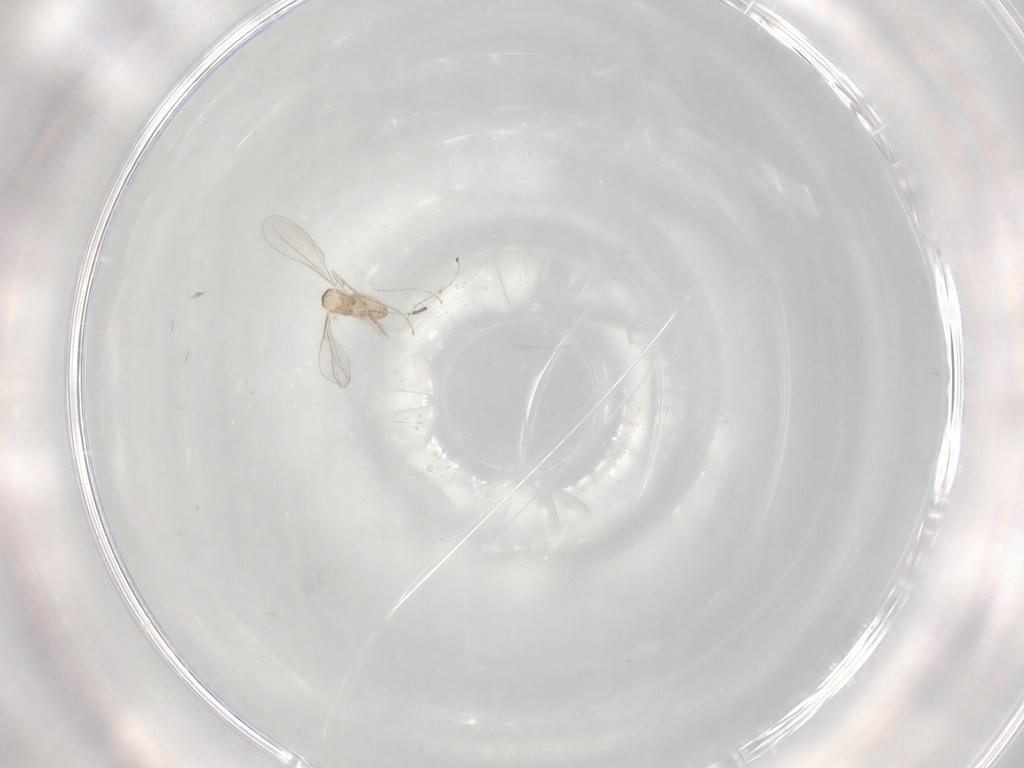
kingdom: Animalia
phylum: Arthropoda
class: Insecta
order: Diptera
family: Cecidomyiidae
